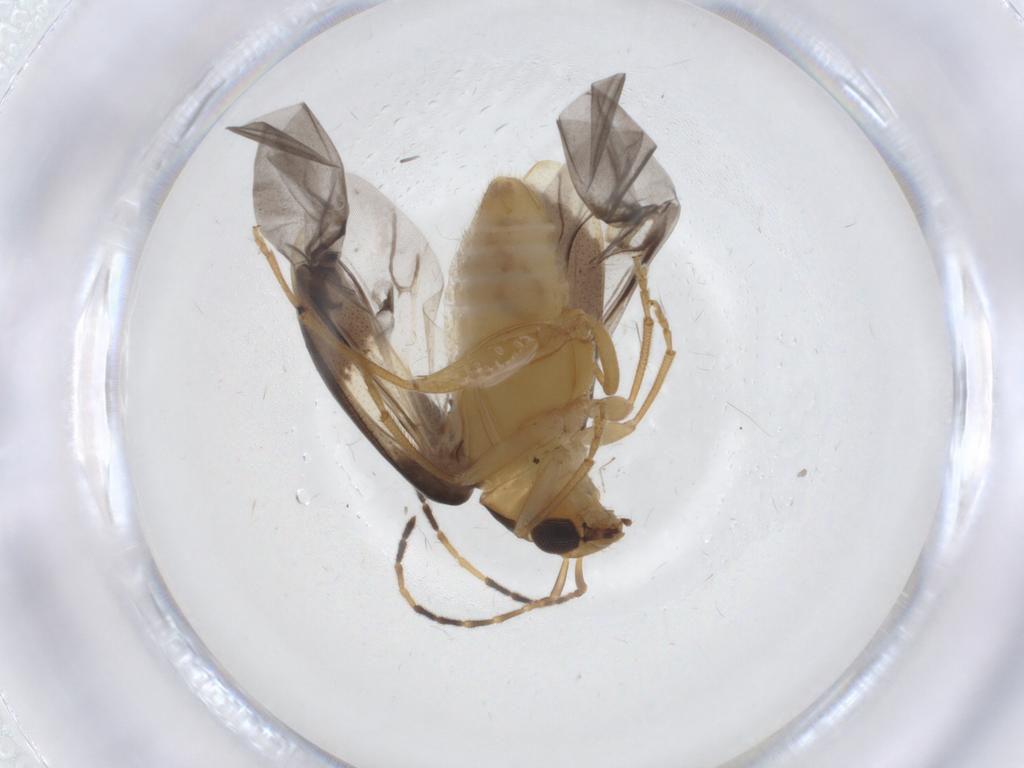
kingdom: Animalia
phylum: Arthropoda
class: Insecta
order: Coleoptera
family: Chrysomelidae
